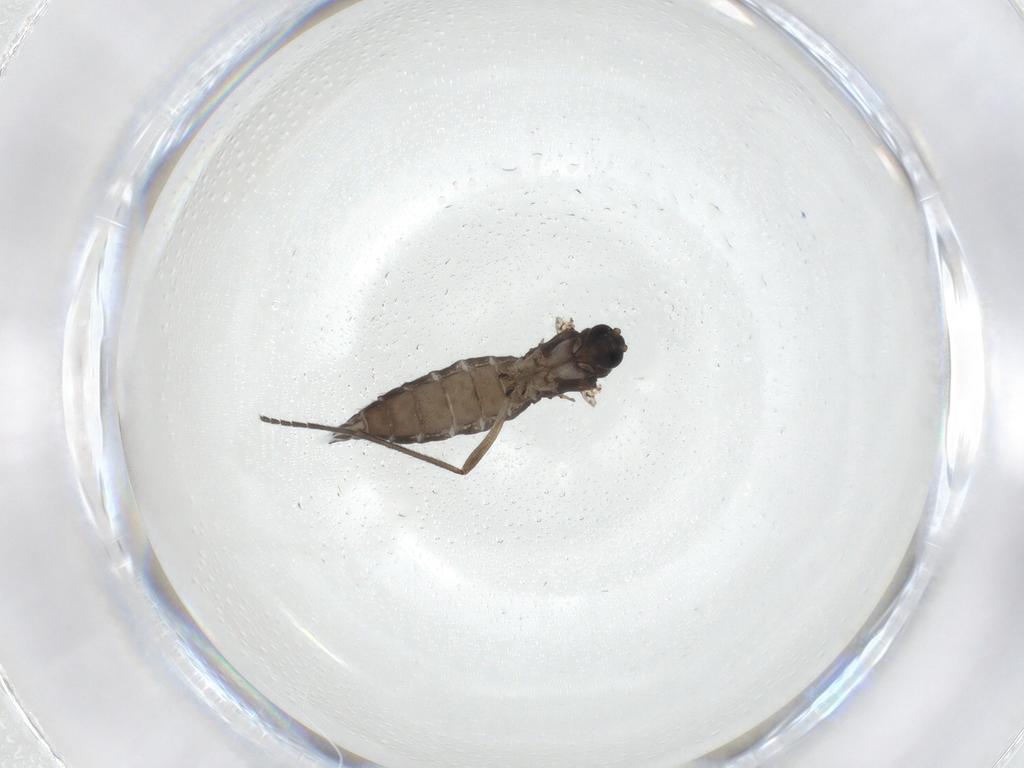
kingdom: Animalia
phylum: Arthropoda
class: Insecta
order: Diptera
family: Sciaridae
